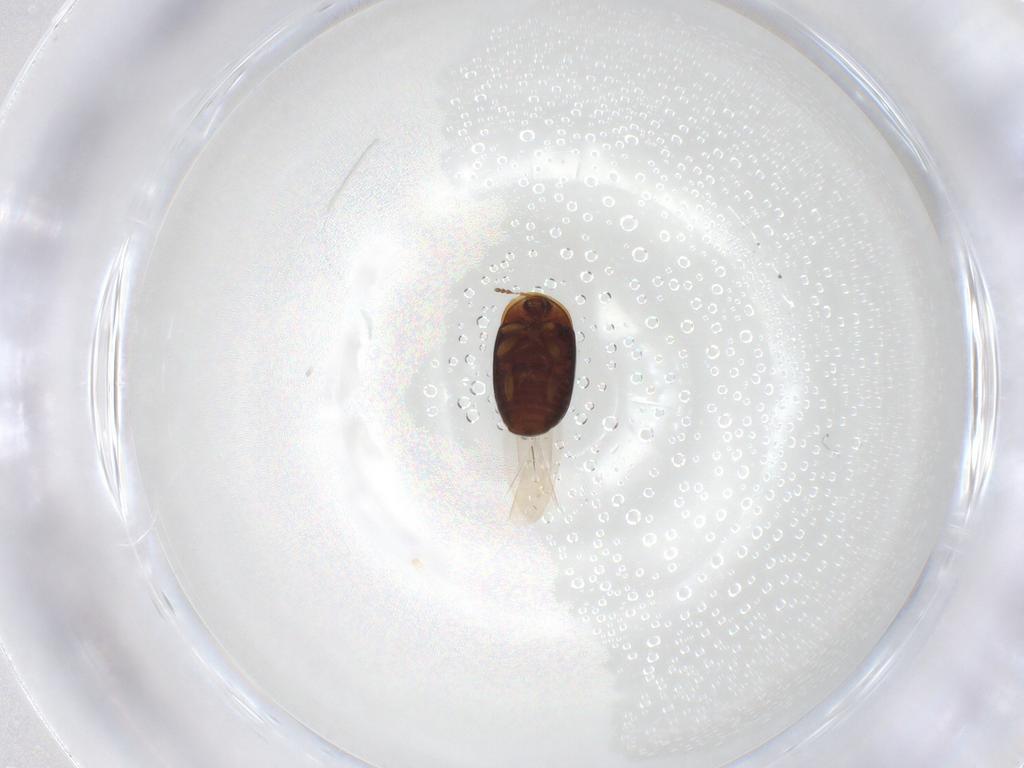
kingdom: Animalia
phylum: Arthropoda
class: Insecta
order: Coleoptera
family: Corylophidae
